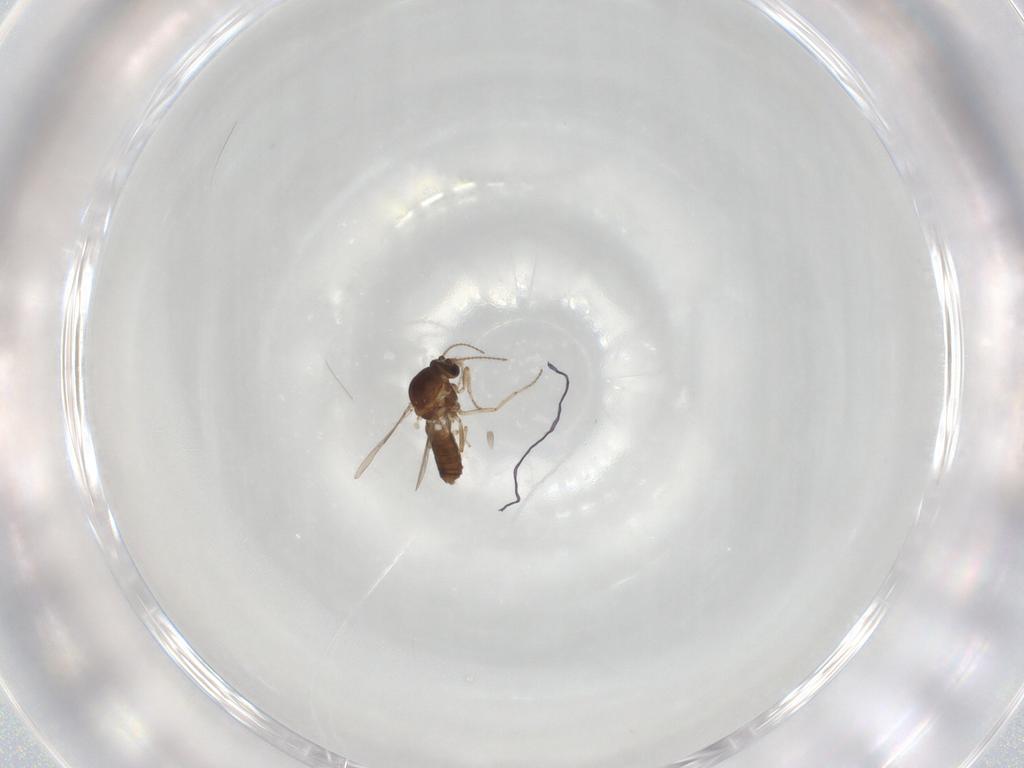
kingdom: Animalia
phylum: Arthropoda
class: Insecta
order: Diptera
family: Ceratopogonidae
